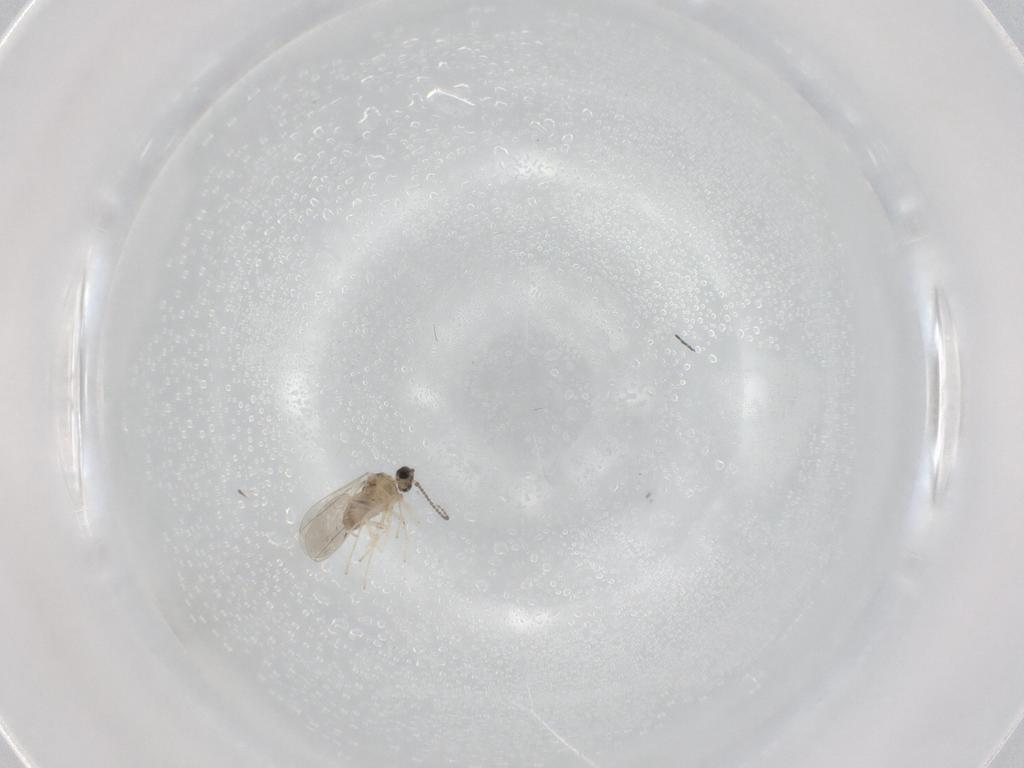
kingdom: Animalia
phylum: Arthropoda
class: Insecta
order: Diptera
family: Cecidomyiidae
